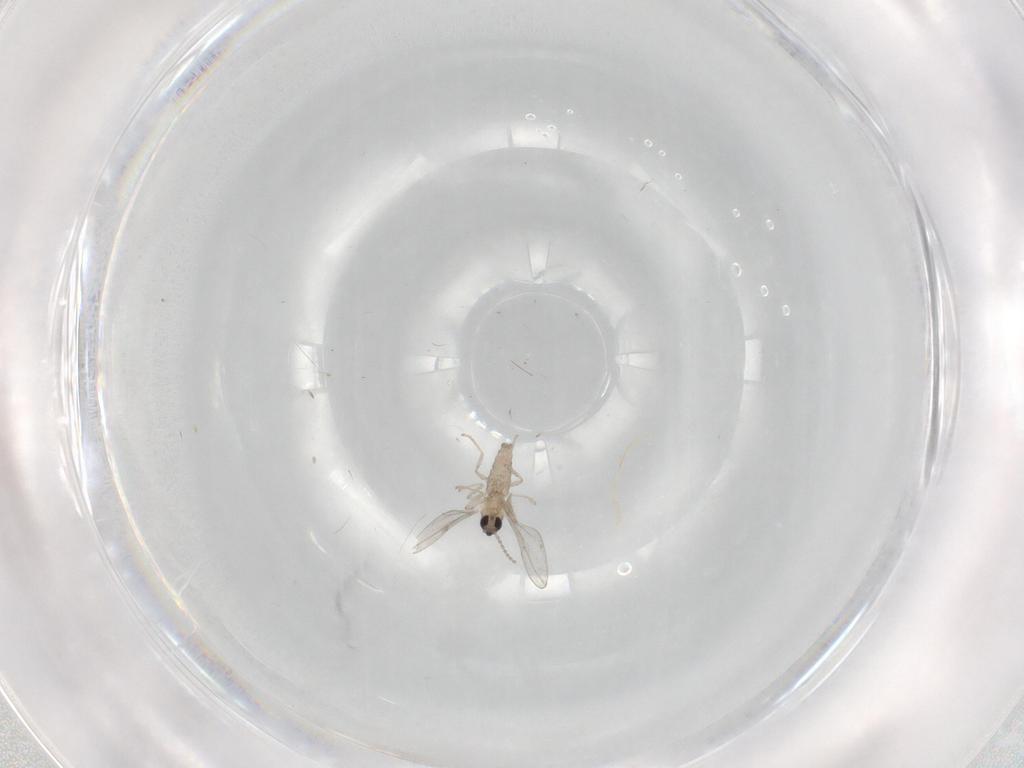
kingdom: Animalia
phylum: Arthropoda
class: Insecta
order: Diptera
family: Cecidomyiidae
